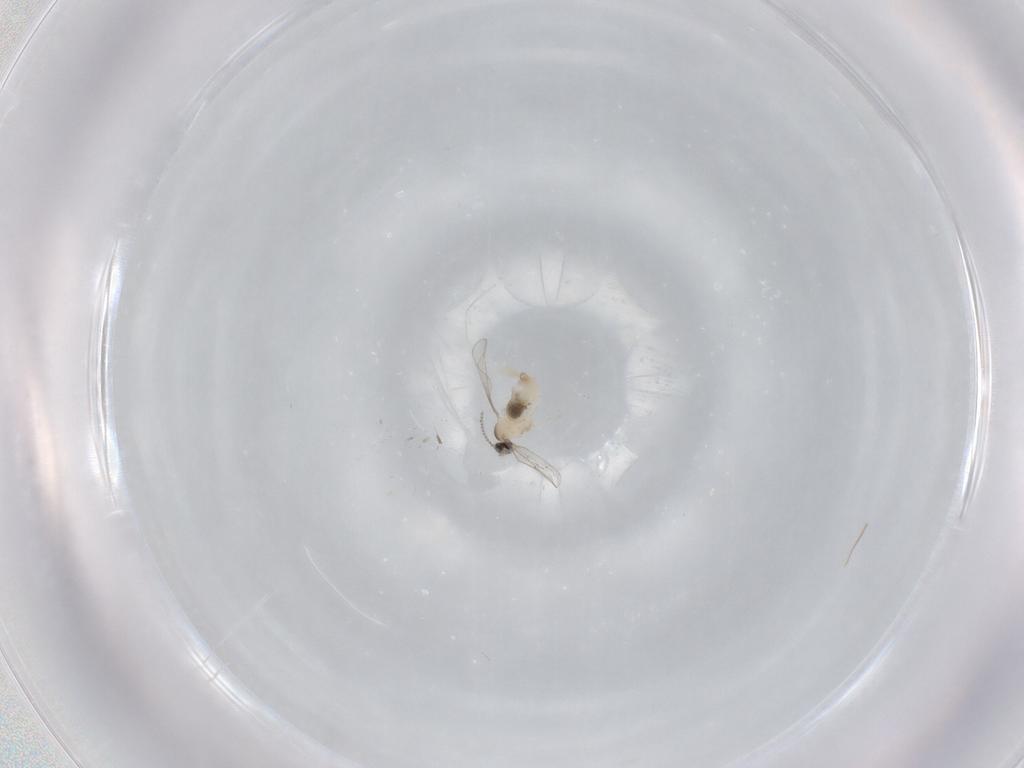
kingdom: Animalia
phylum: Arthropoda
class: Insecta
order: Diptera
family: Cecidomyiidae
